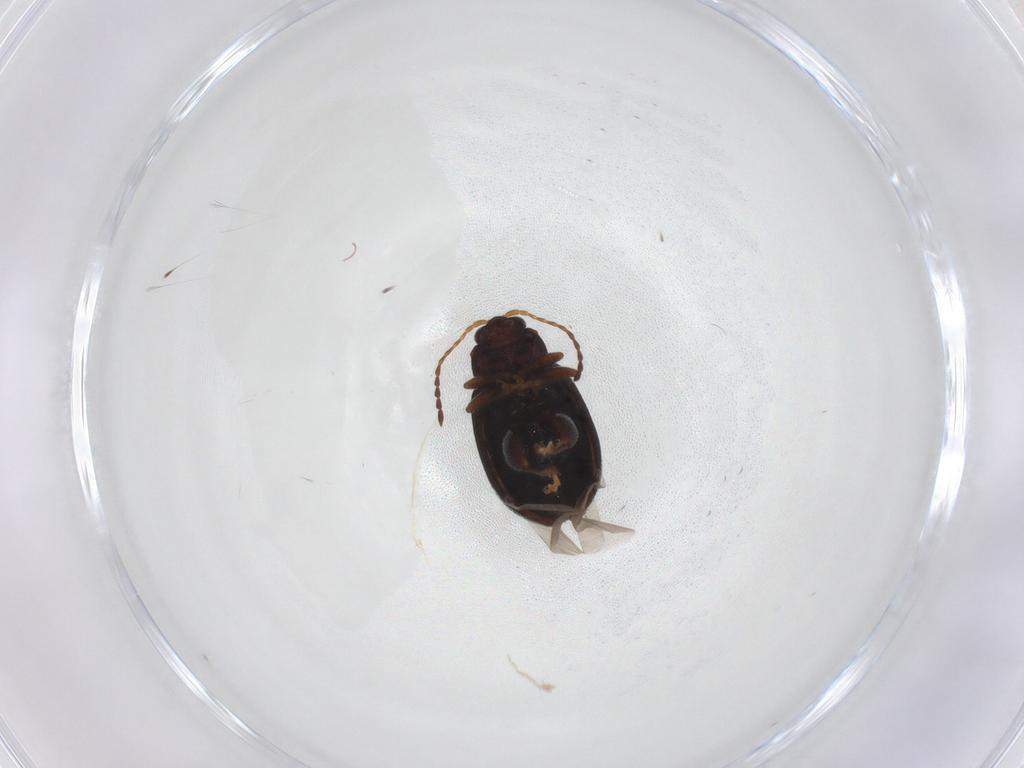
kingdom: Animalia
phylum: Arthropoda
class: Insecta
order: Coleoptera
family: Chrysomelidae
